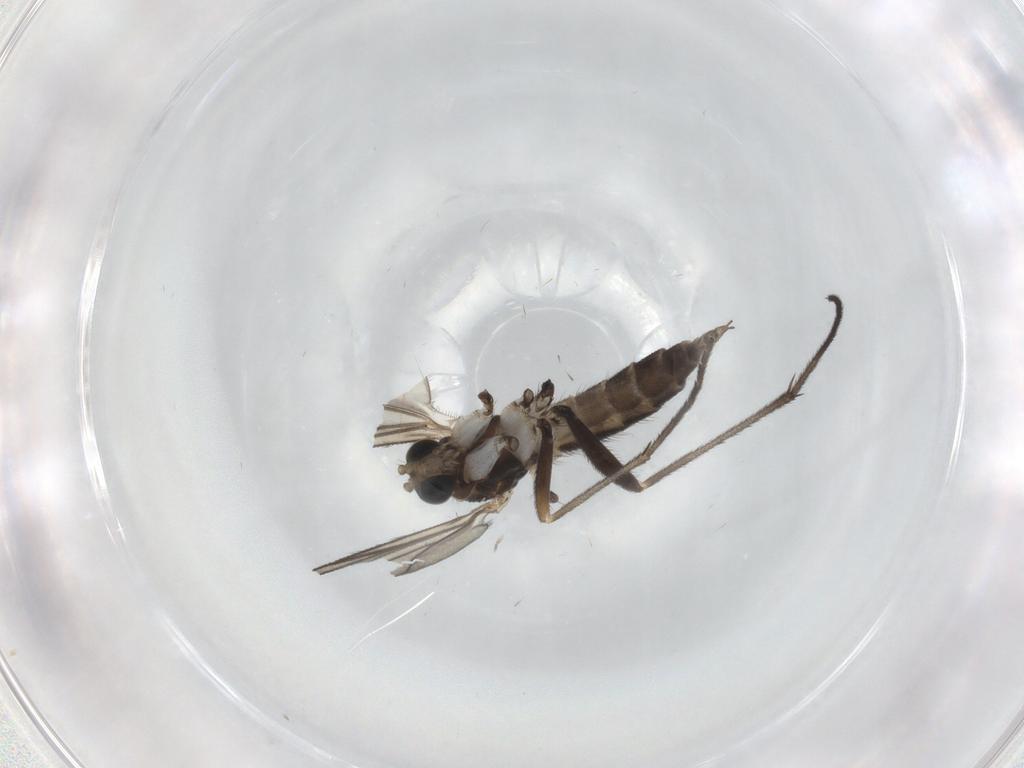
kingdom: Animalia
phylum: Arthropoda
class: Insecta
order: Diptera
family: Sciaridae
